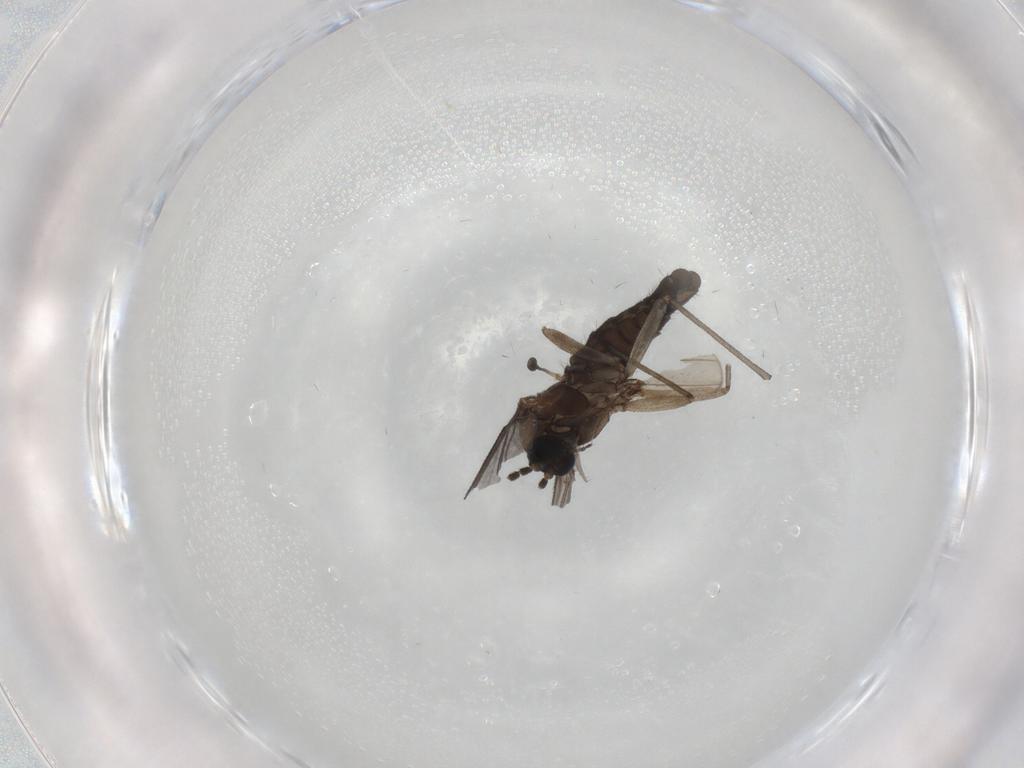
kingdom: Animalia
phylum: Arthropoda
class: Insecta
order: Diptera
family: Sciaridae
